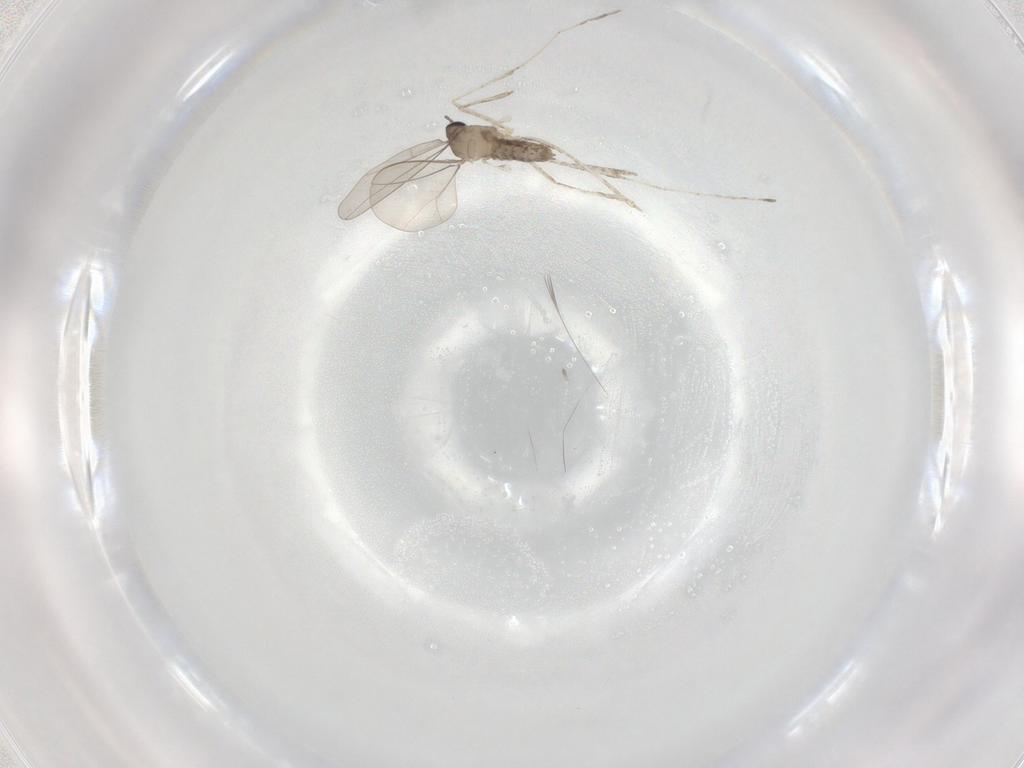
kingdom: Animalia
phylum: Arthropoda
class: Insecta
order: Diptera
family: Cecidomyiidae
